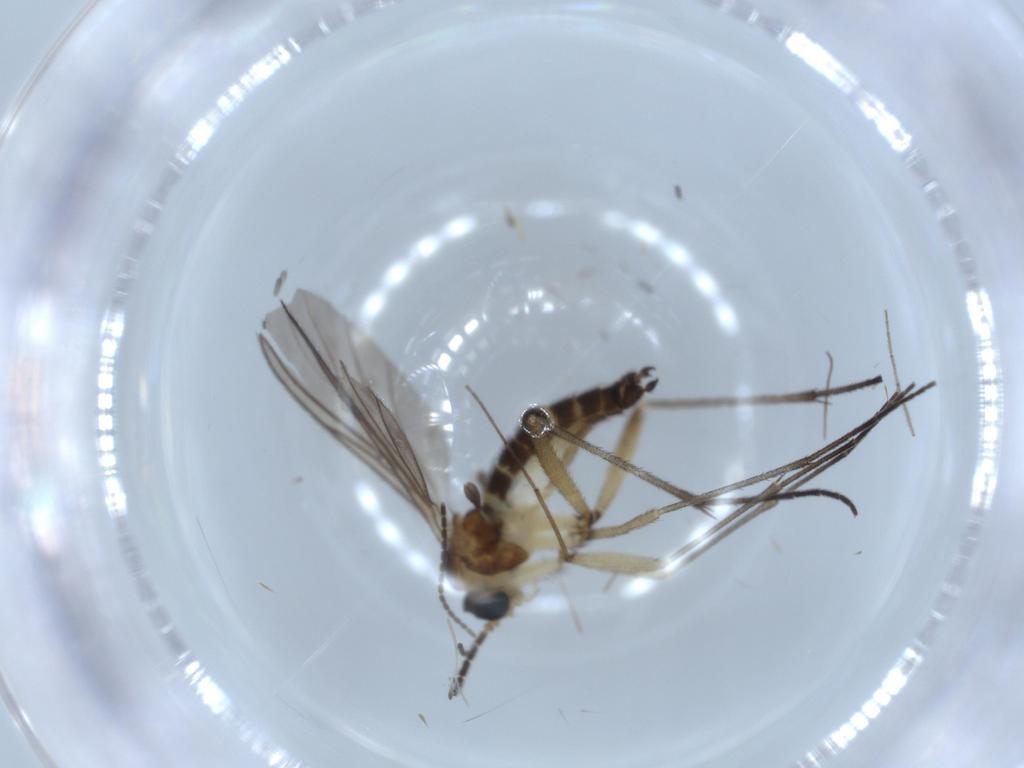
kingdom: Animalia
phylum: Arthropoda
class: Insecta
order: Diptera
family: Sciaridae
